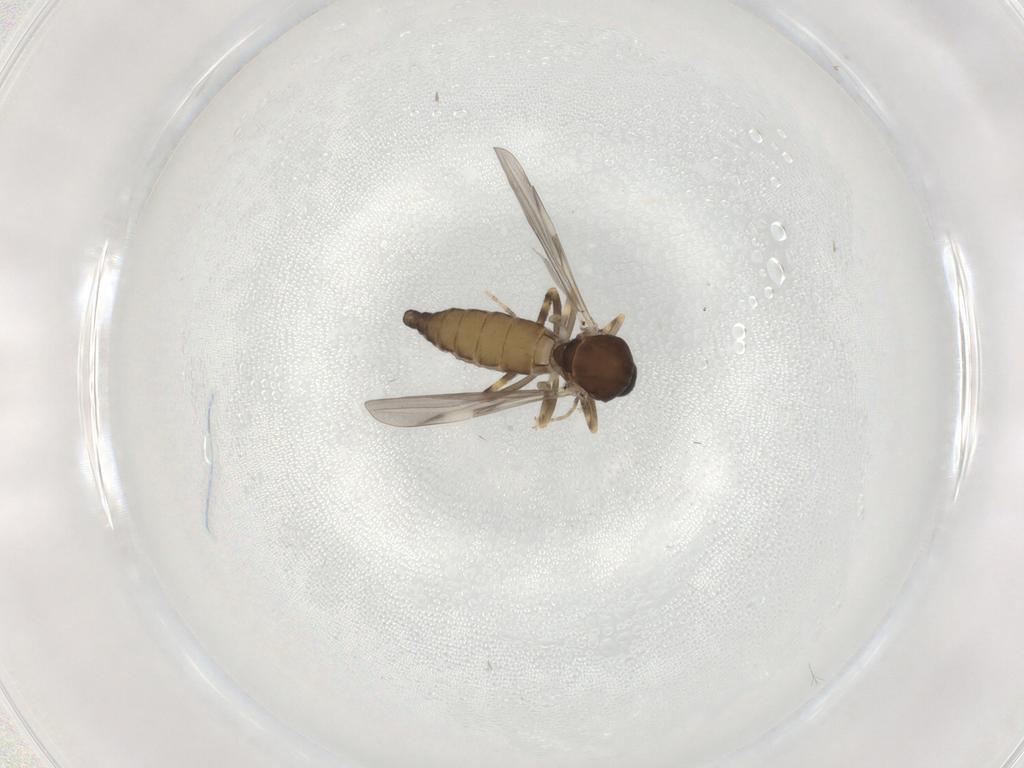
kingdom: Animalia
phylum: Arthropoda
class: Insecta
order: Diptera
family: Ceratopogonidae
